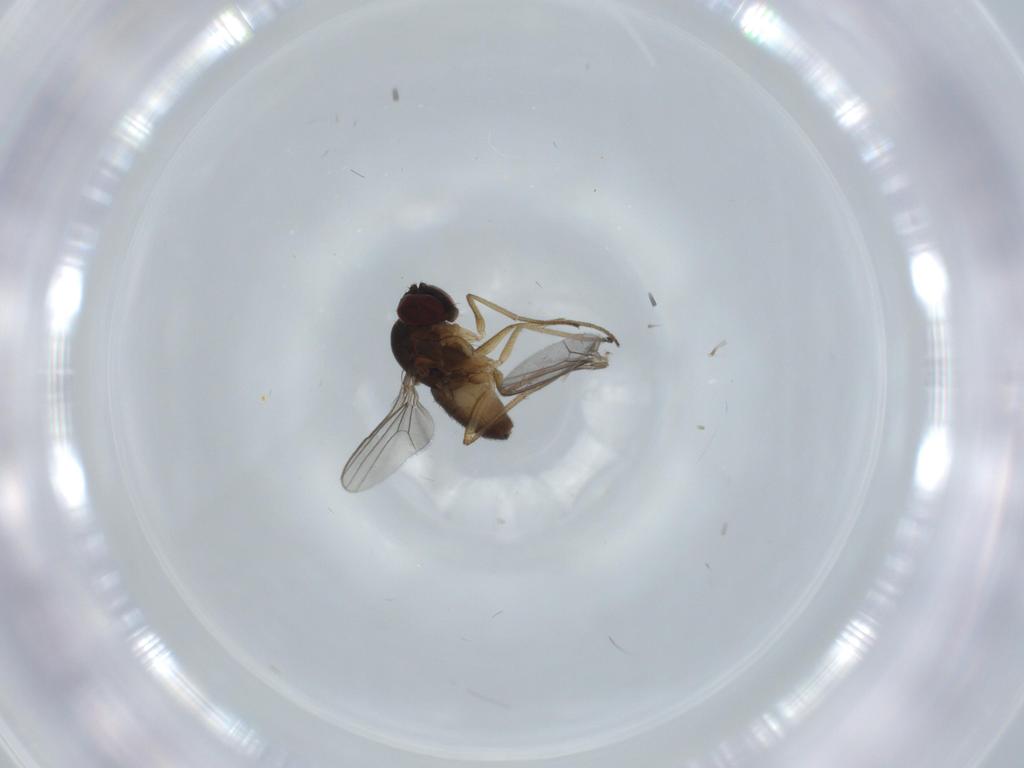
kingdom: Animalia
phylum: Arthropoda
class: Insecta
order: Diptera
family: Dolichopodidae
